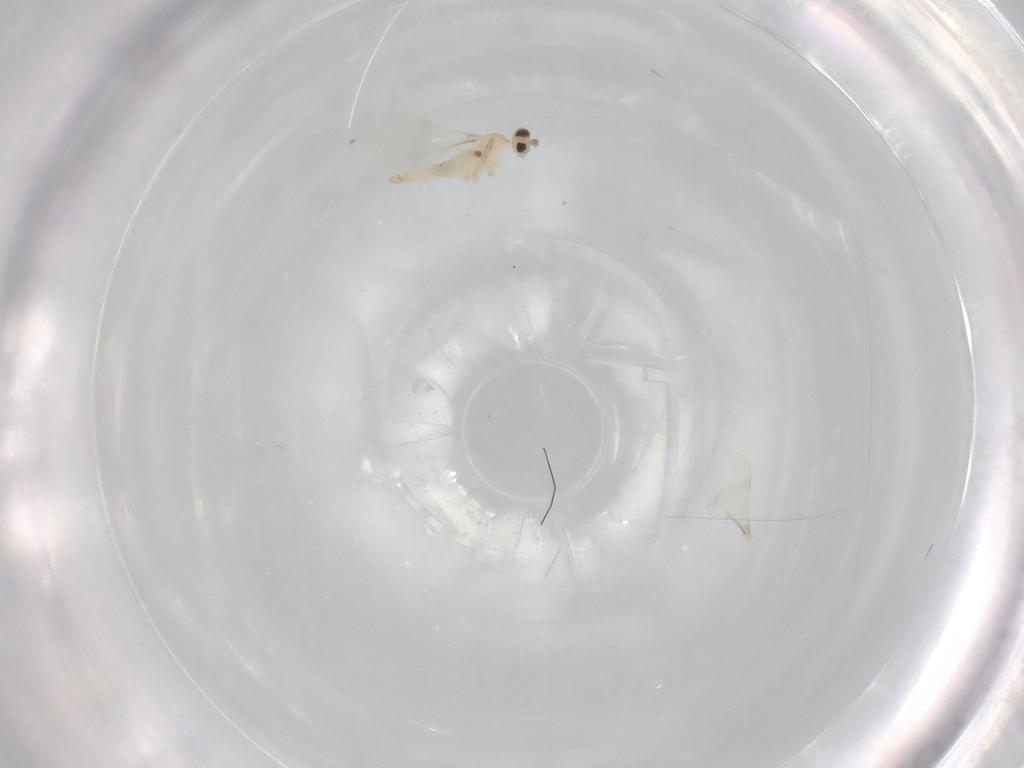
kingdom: Animalia
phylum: Arthropoda
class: Insecta
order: Diptera
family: Cecidomyiidae
